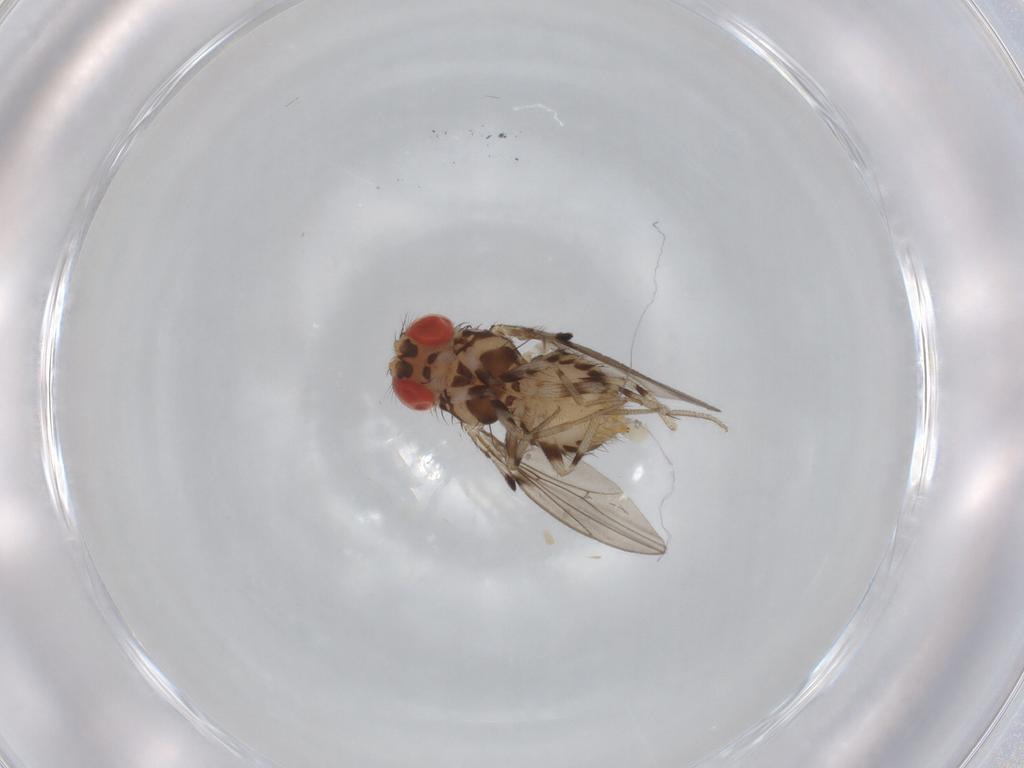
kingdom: Animalia
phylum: Arthropoda
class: Insecta
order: Diptera
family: Drosophilidae
